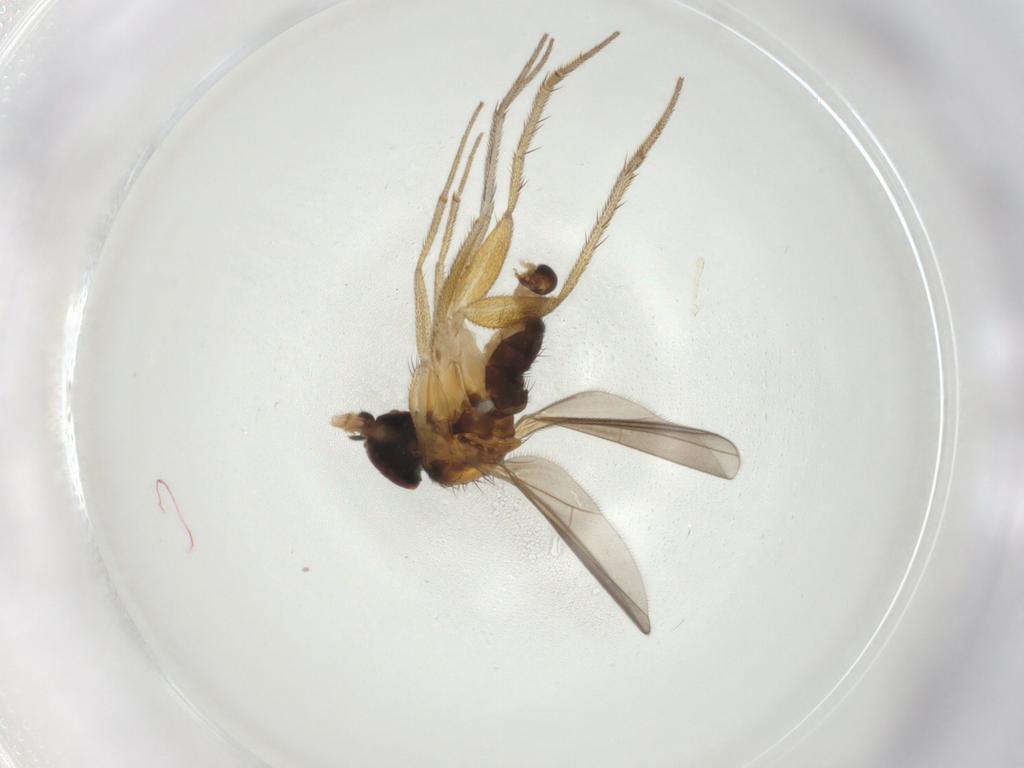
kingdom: Animalia
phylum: Arthropoda
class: Insecta
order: Diptera
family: Dolichopodidae
